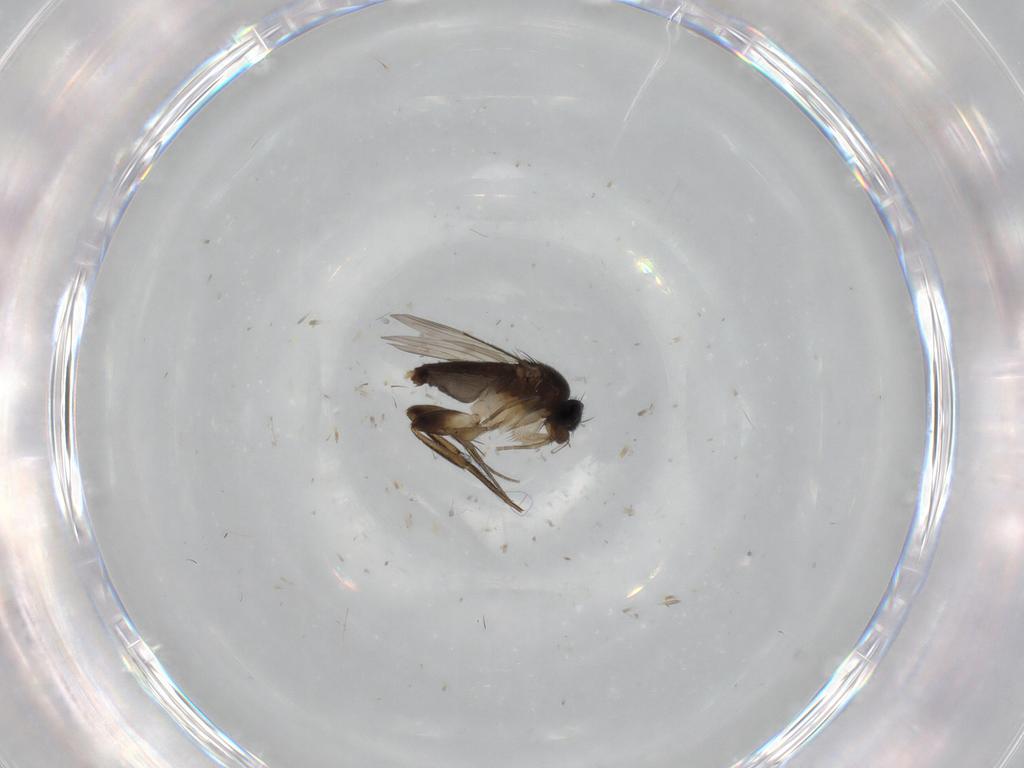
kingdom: Animalia
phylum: Arthropoda
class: Insecta
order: Diptera
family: Phoridae
